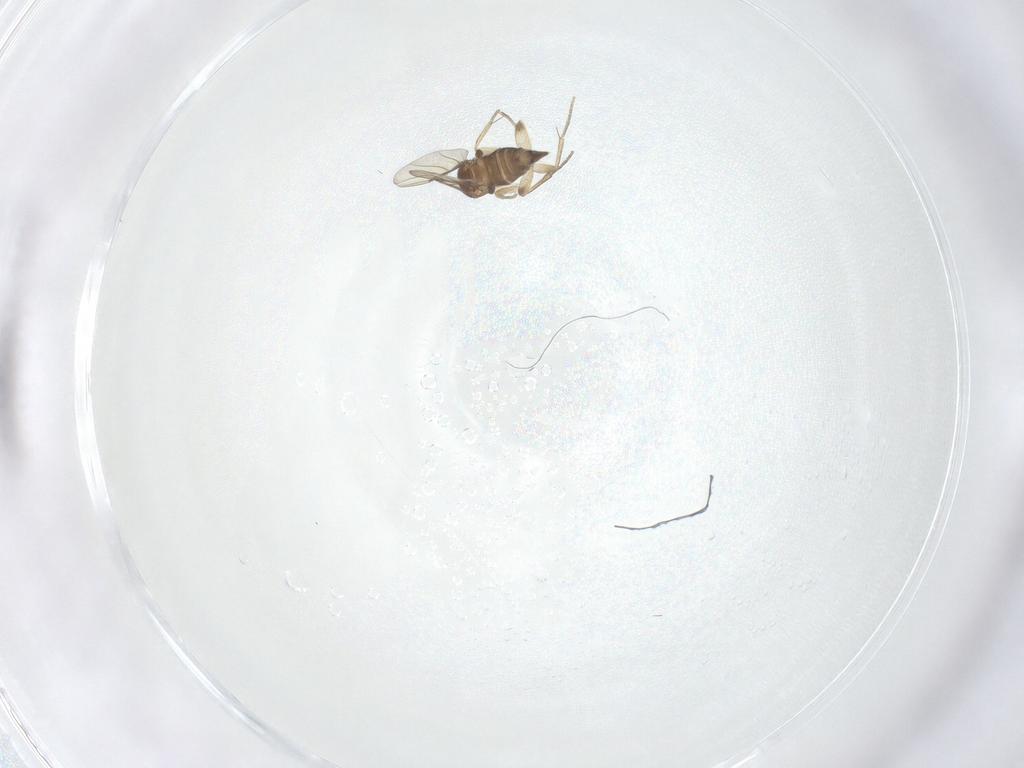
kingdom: Animalia
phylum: Arthropoda
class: Insecta
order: Diptera
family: Phoridae
